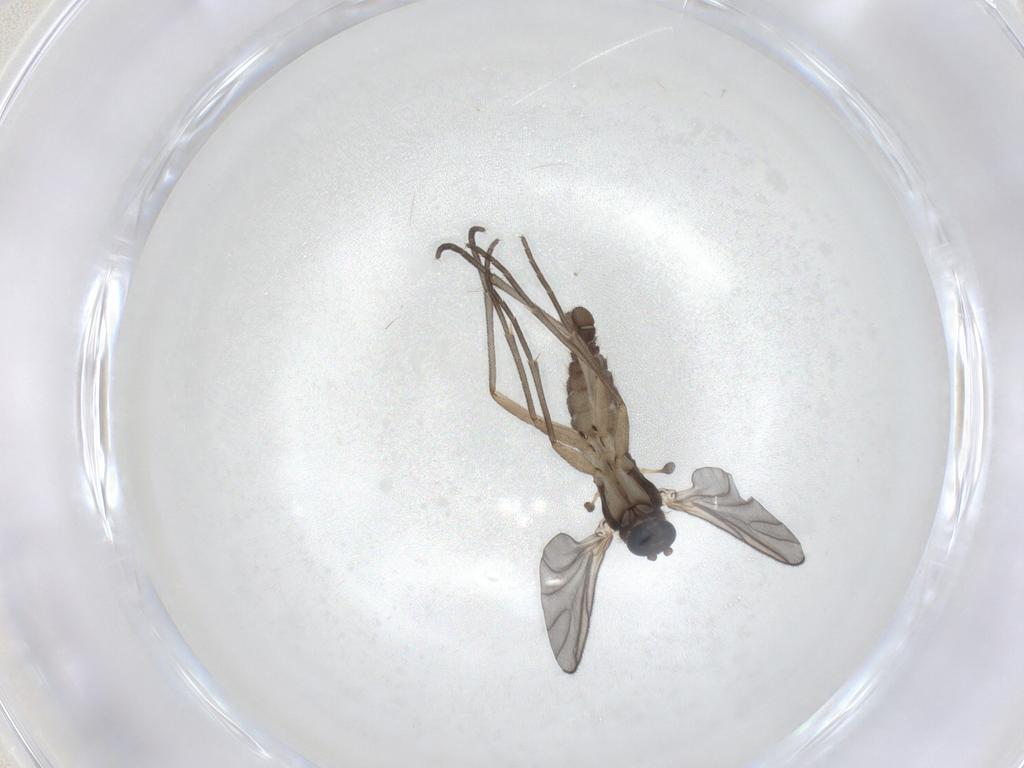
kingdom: Animalia
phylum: Arthropoda
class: Insecta
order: Diptera
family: Sciaridae
